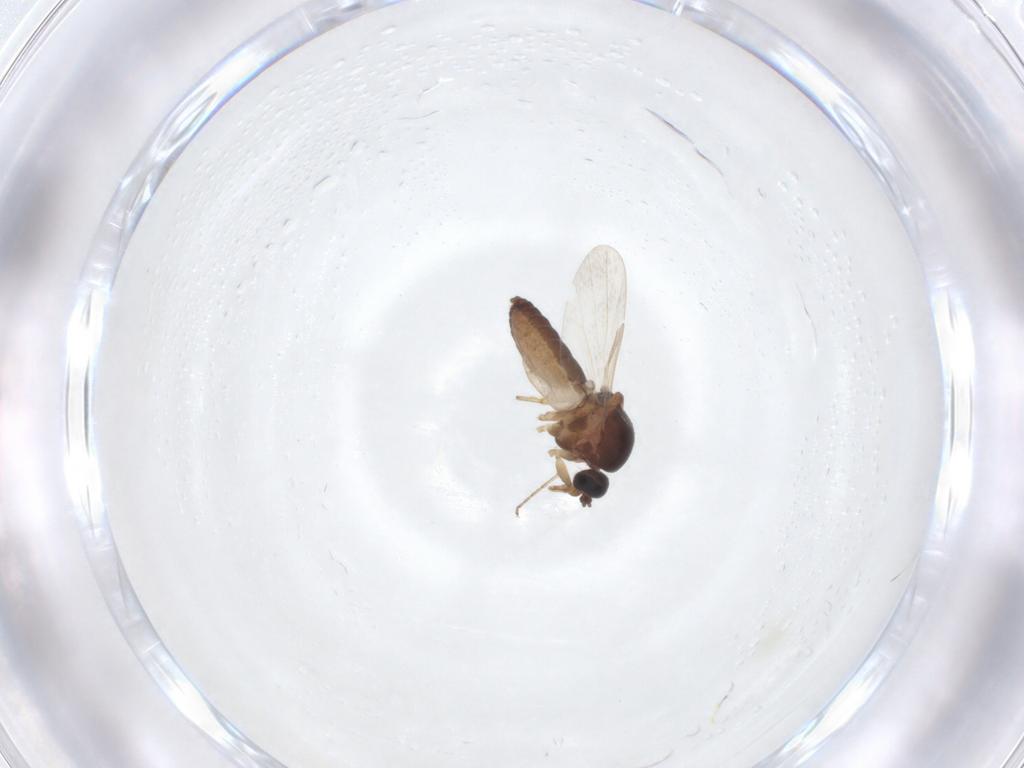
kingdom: Animalia
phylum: Arthropoda
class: Insecta
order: Diptera
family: Ceratopogonidae
